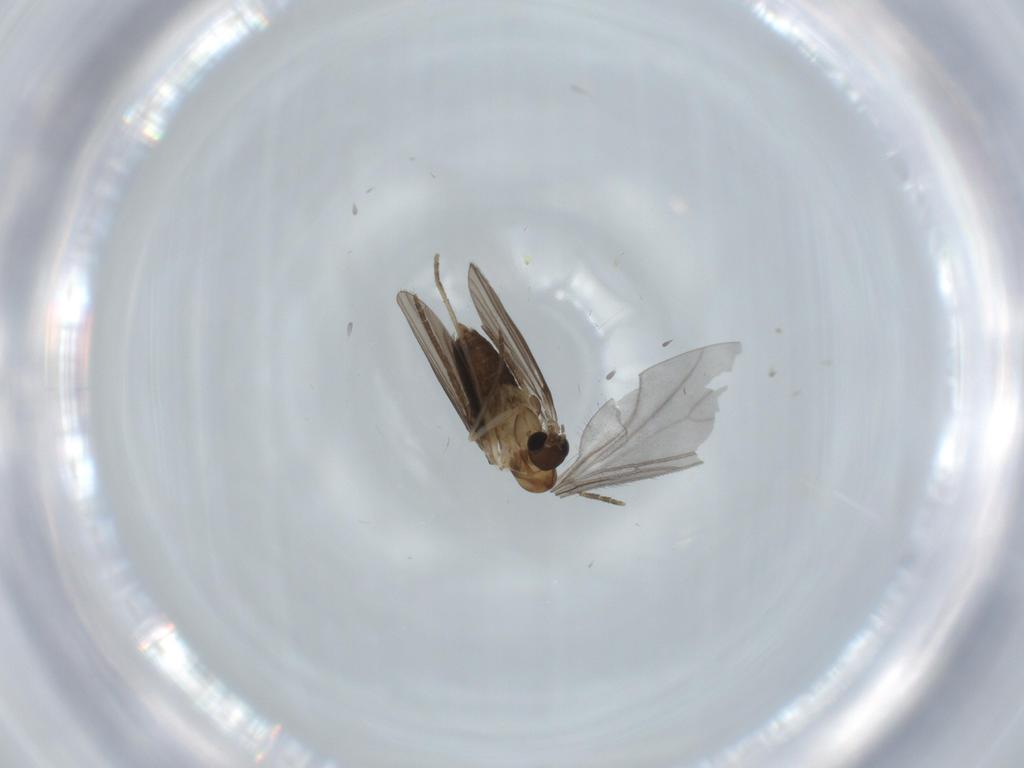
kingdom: Animalia
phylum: Arthropoda
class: Insecta
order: Diptera
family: Sciaridae
